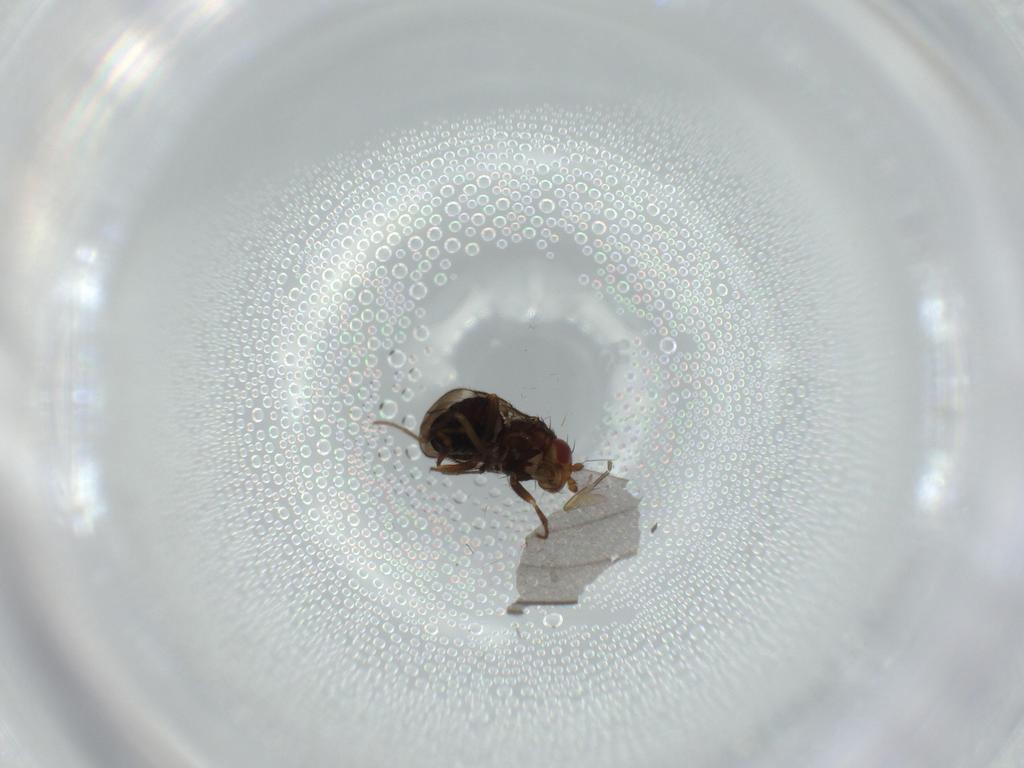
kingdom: Animalia
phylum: Arthropoda
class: Insecta
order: Diptera
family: Phoridae
